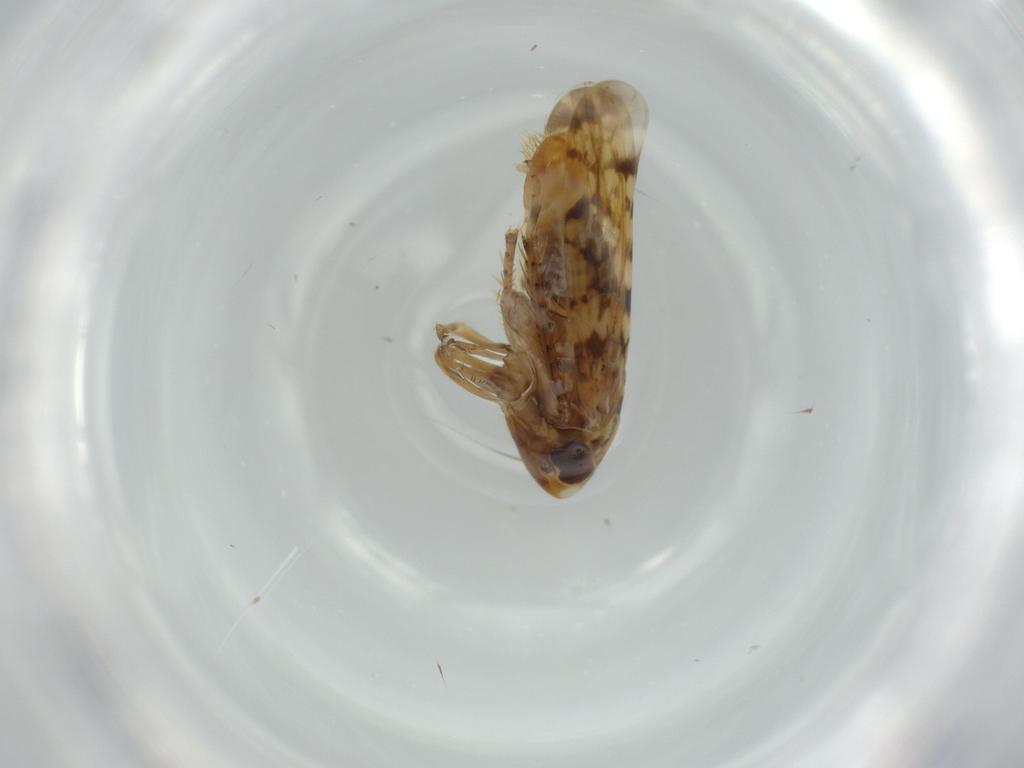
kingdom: Animalia
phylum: Arthropoda
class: Insecta
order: Hemiptera
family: Cicadellidae
